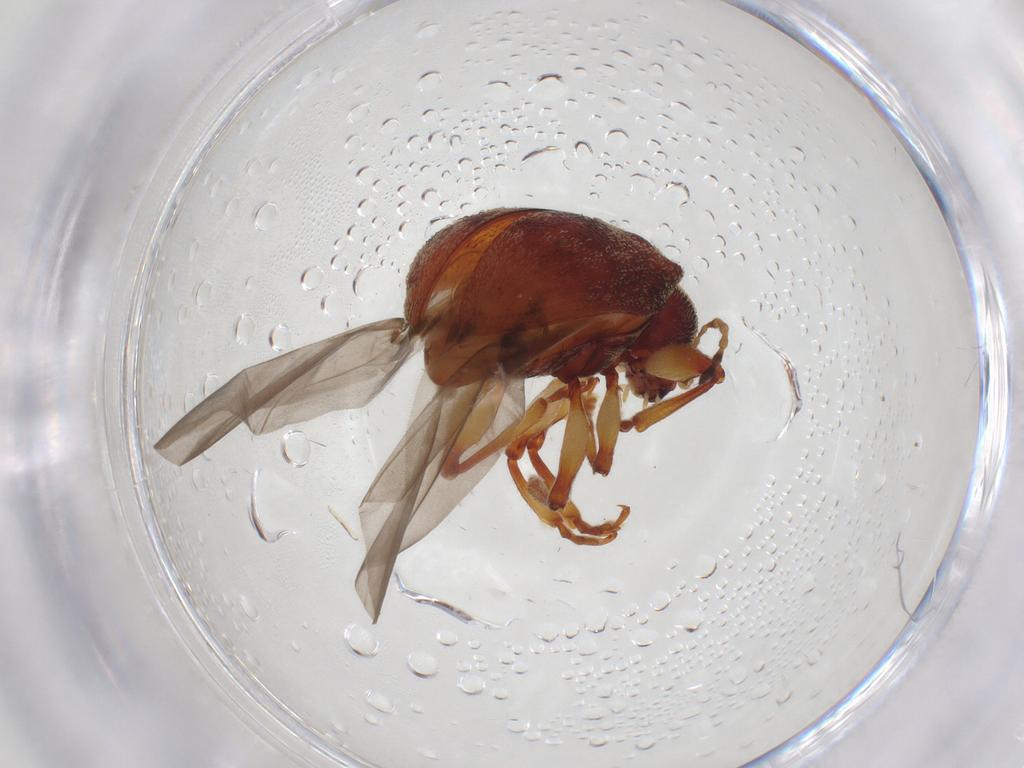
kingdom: Animalia
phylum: Arthropoda
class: Insecta
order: Coleoptera
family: Chrysomelidae
